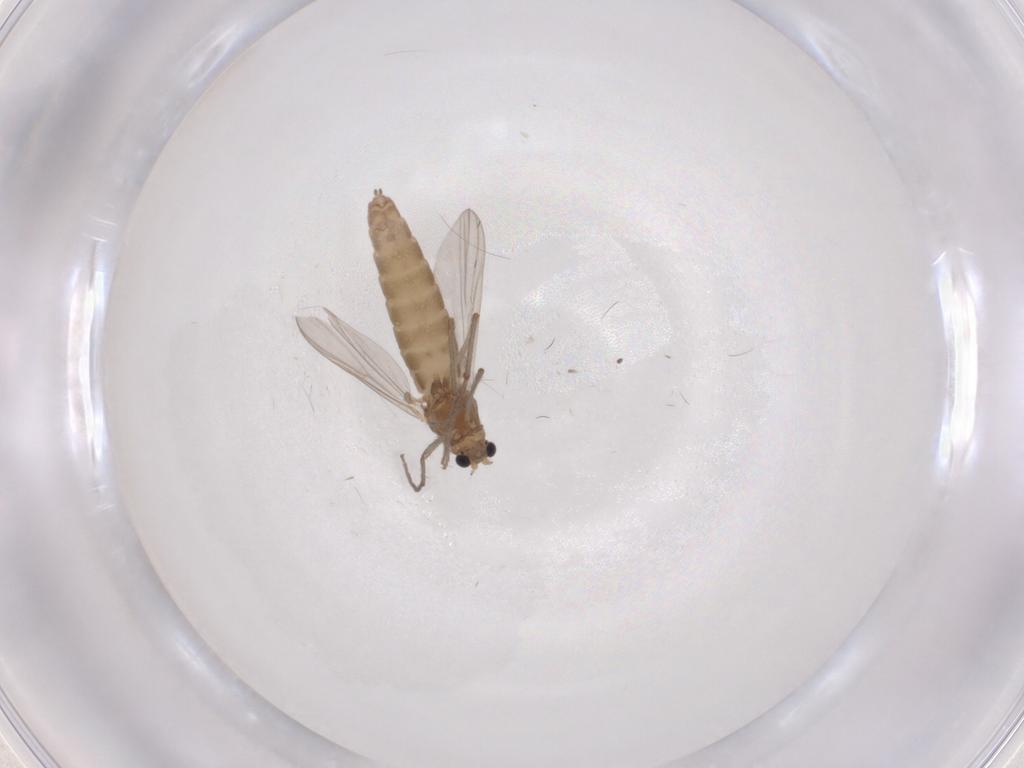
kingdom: Animalia
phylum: Arthropoda
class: Insecta
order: Diptera
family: Chironomidae
